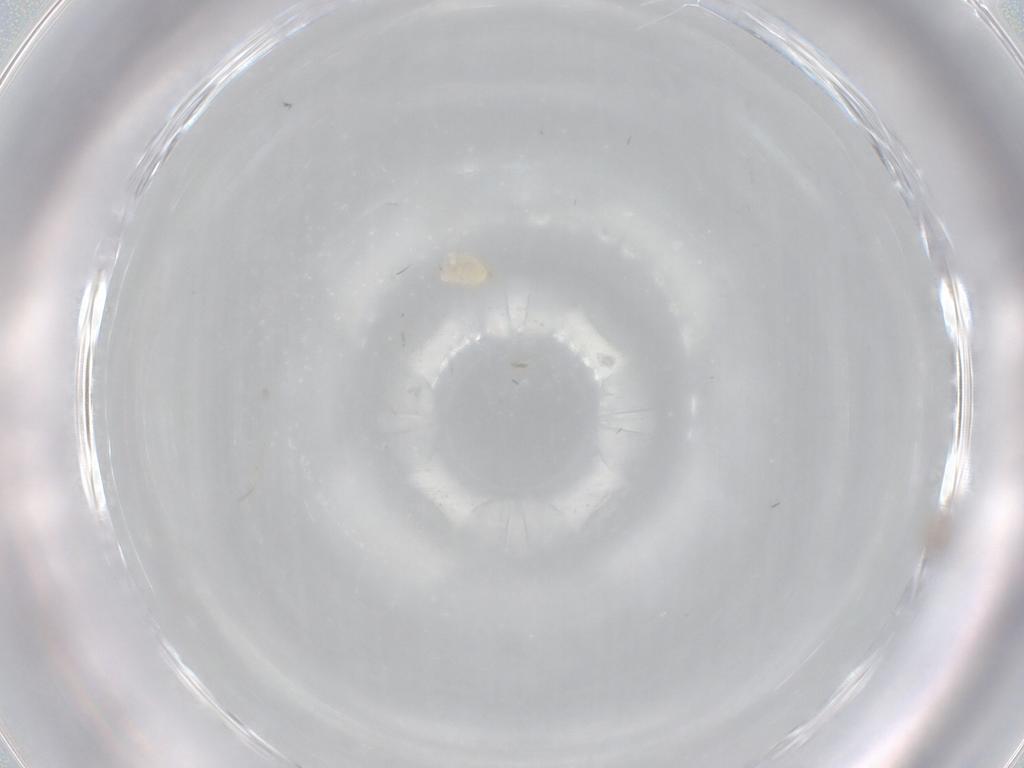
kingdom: Animalia
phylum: Arthropoda
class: Insecta
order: Diptera
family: Cecidomyiidae
